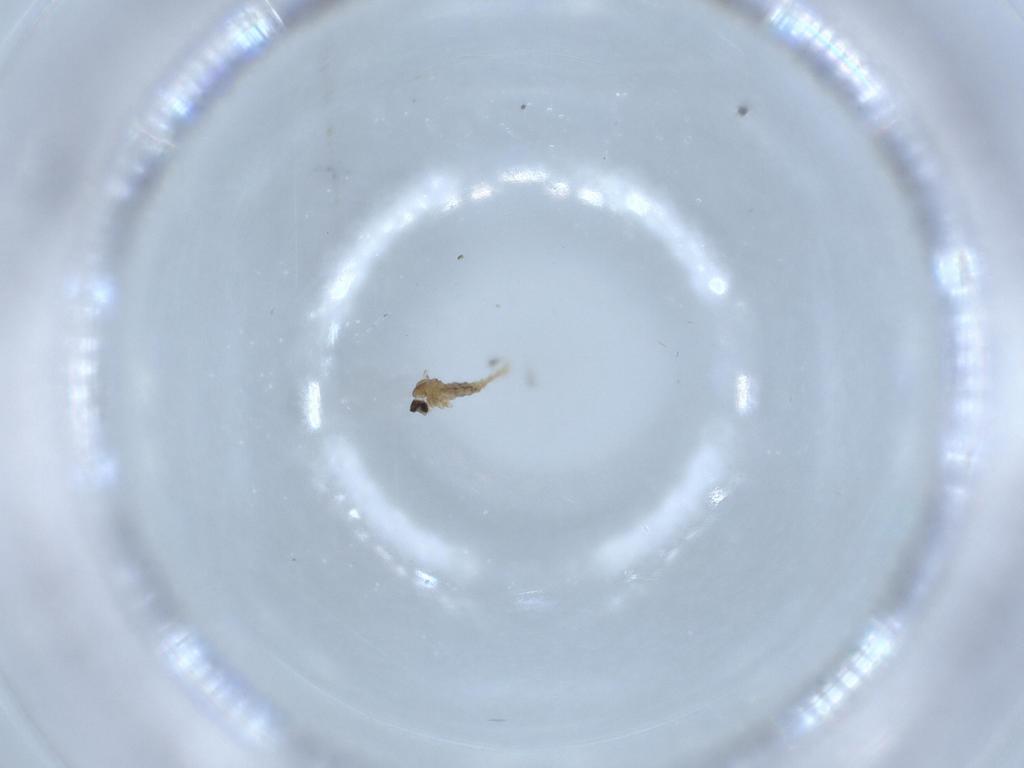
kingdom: Animalia
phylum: Arthropoda
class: Insecta
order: Diptera
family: Cecidomyiidae
